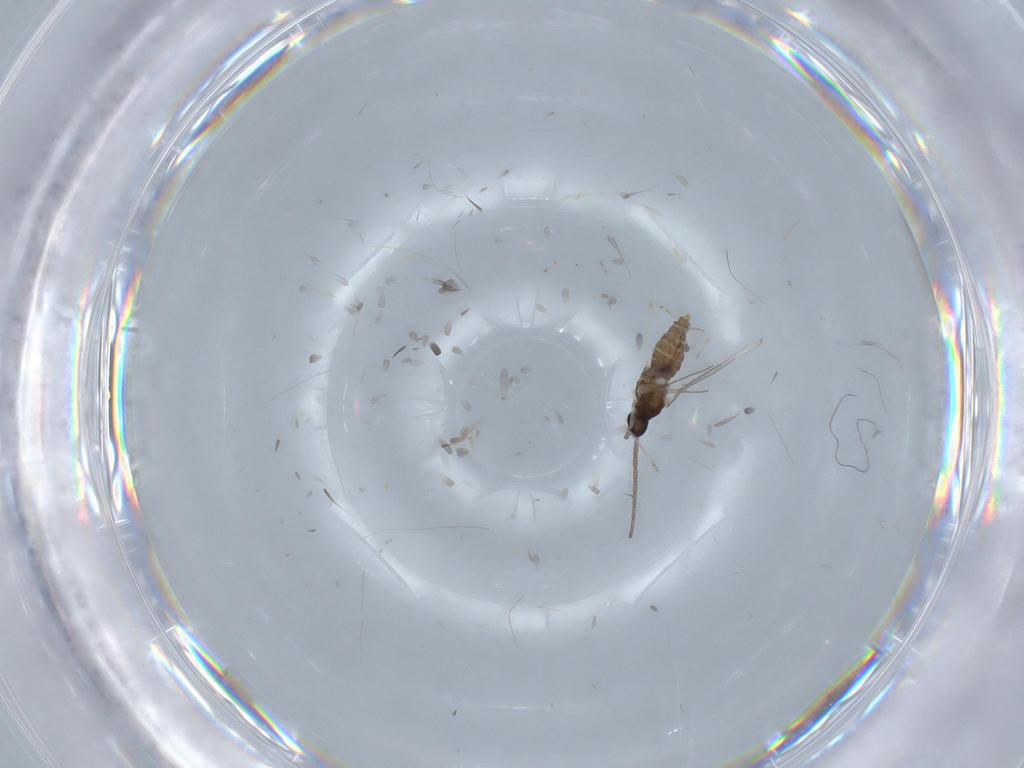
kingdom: Animalia
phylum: Arthropoda
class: Insecta
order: Diptera
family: Cecidomyiidae
